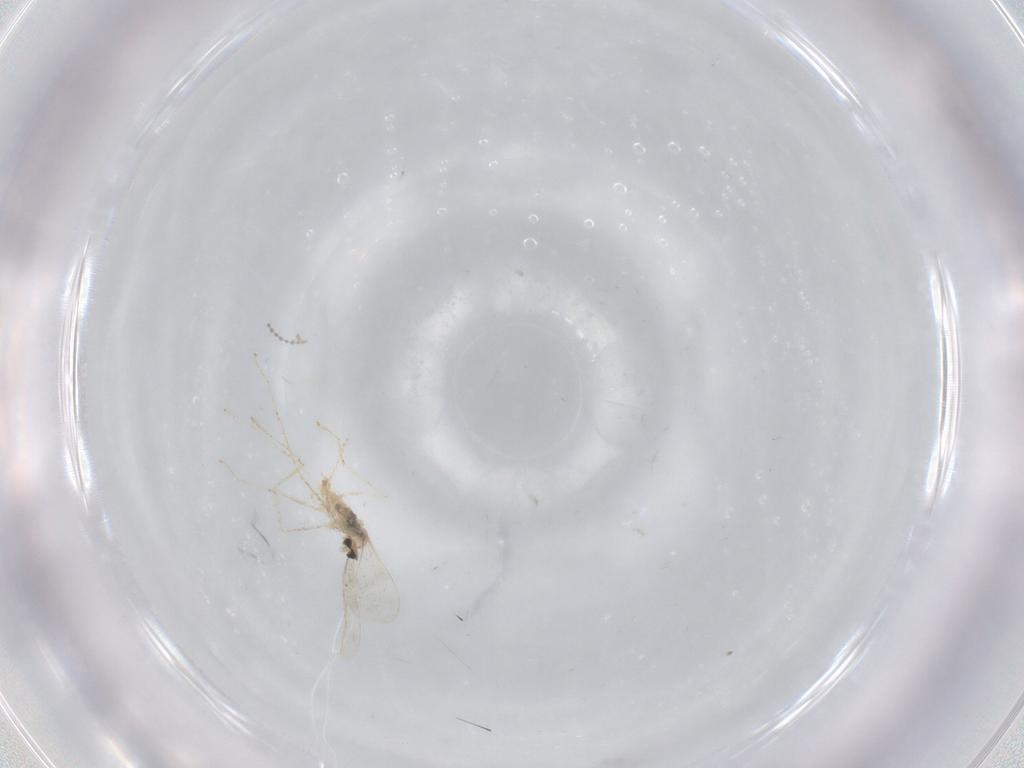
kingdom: Animalia
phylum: Arthropoda
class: Insecta
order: Diptera
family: Cecidomyiidae
